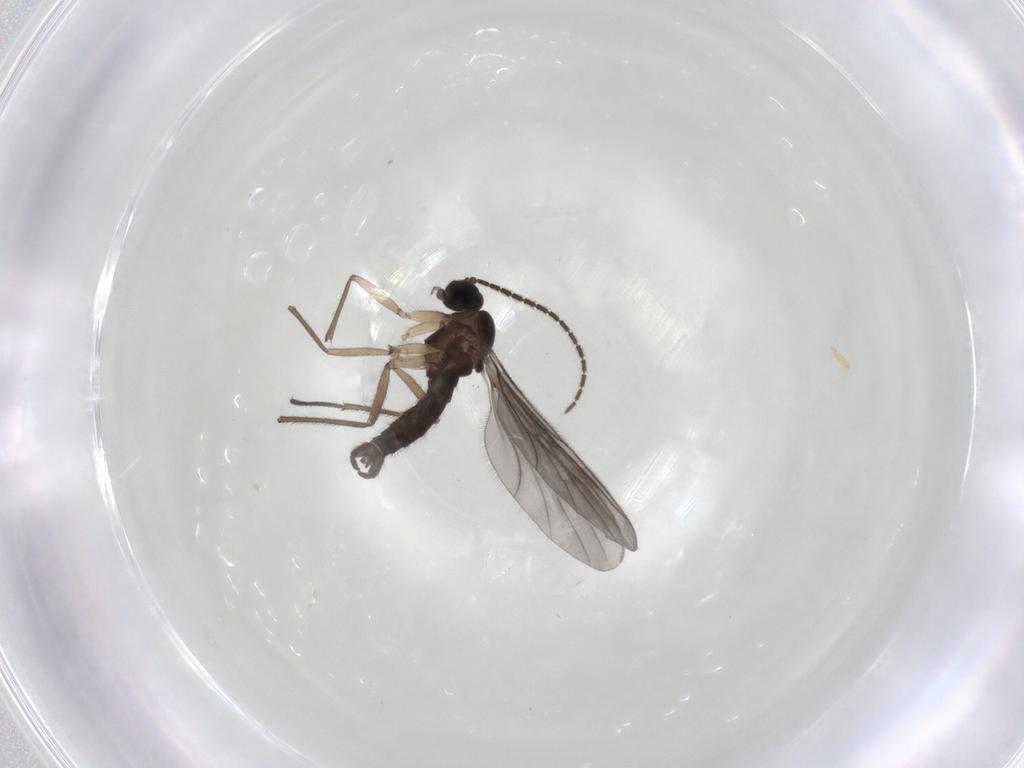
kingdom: Animalia
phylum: Arthropoda
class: Insecta
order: Diptera
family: Sciaridae
